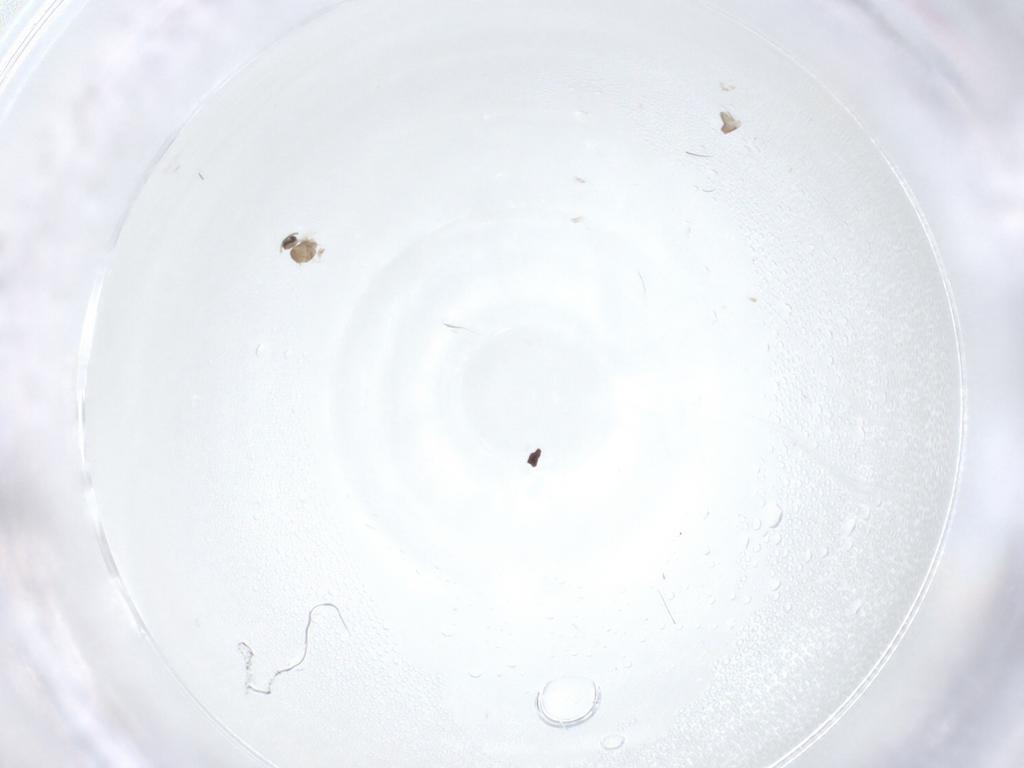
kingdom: Animalia
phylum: Arthropoda
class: Insecta
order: Diptera
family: Cecidomyiidae
